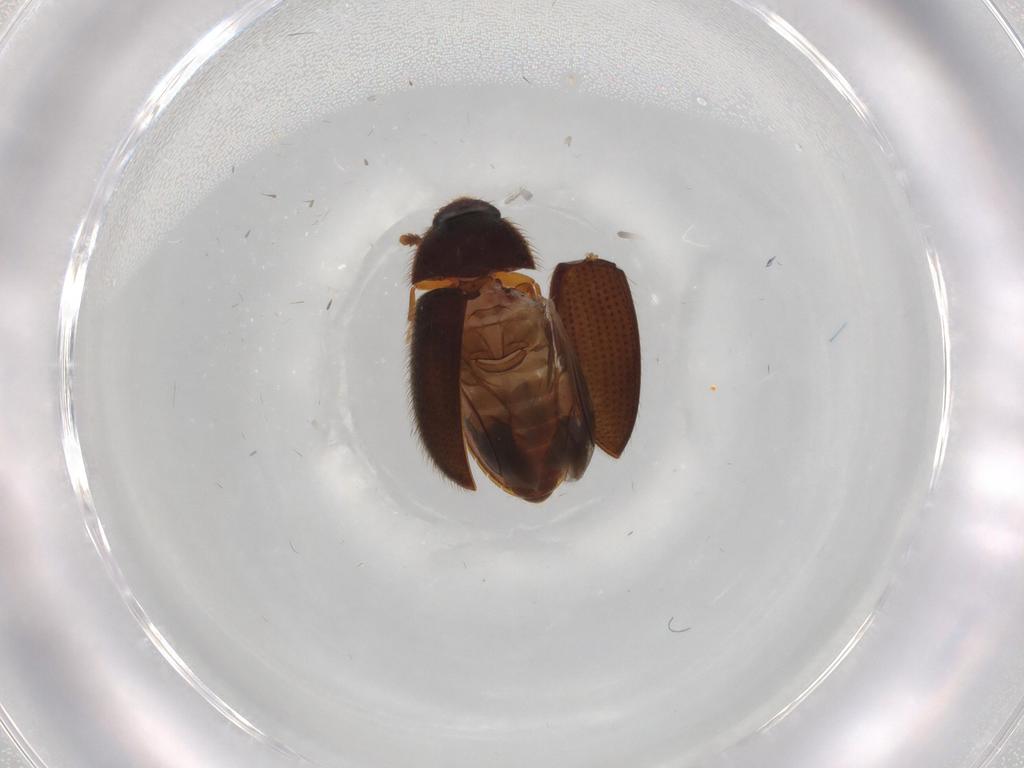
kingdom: Animalia
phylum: Arthropoda
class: Insecta
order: Coleoptera
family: Biphyllidae
